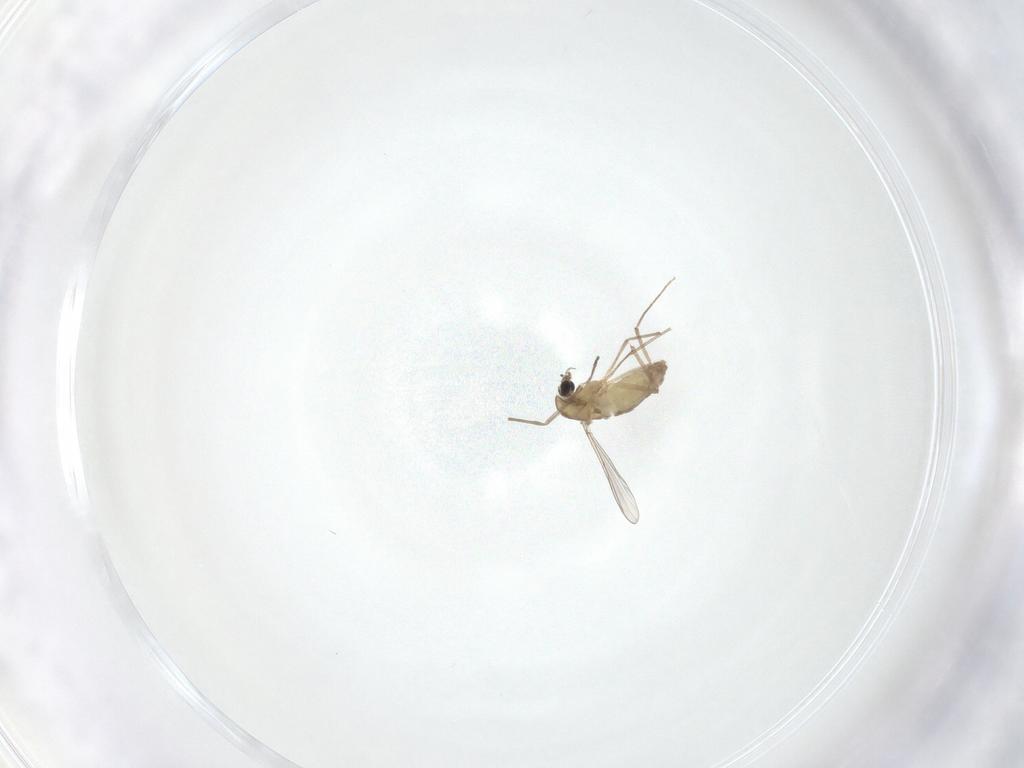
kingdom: Animalia
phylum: Arthropoda
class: Insecta
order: Diptera
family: Chironomidae
